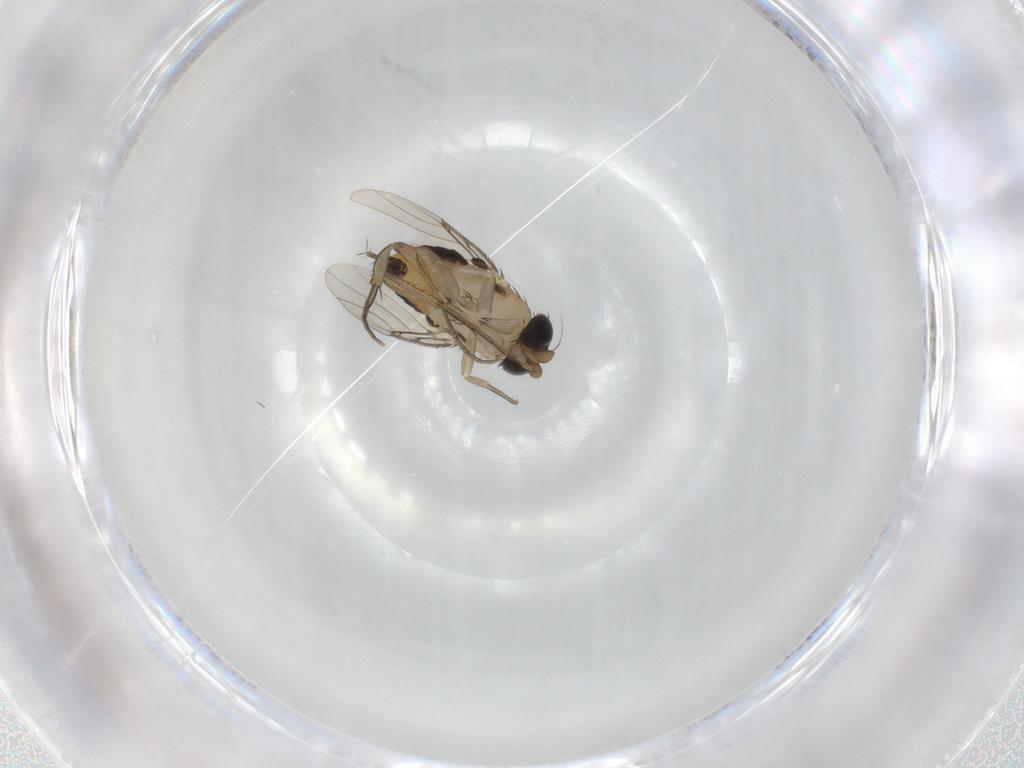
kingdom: Animalia
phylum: Arthropoda
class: Insecta
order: Diptera
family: Phoridae
